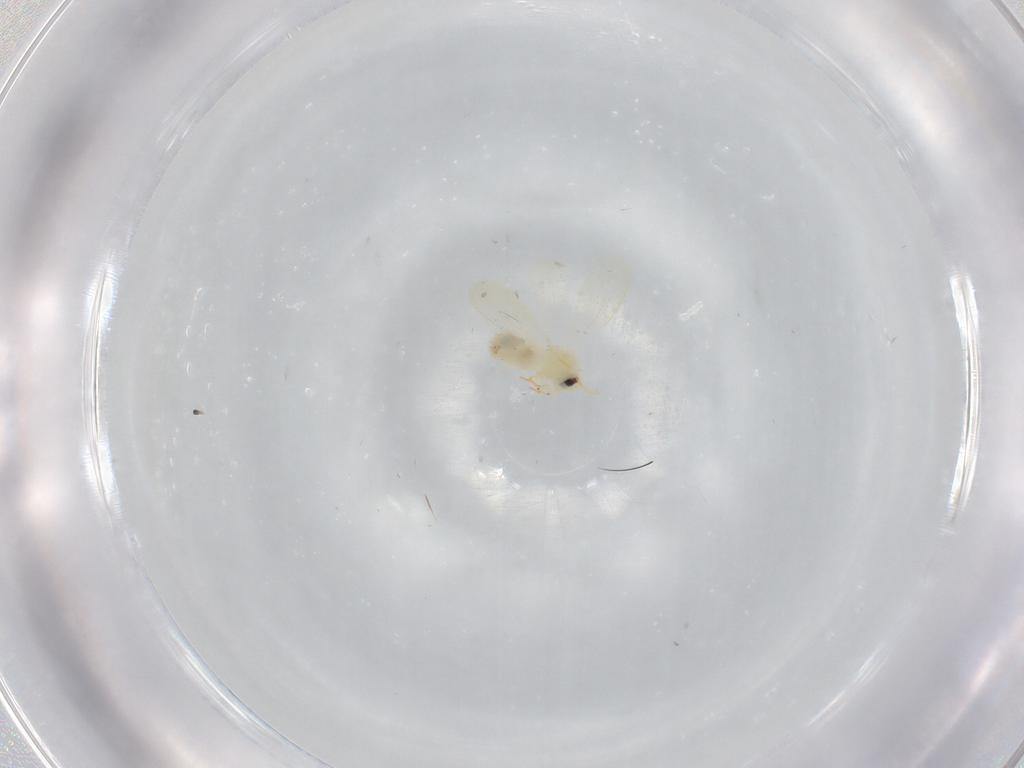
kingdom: Animalia
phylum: Arthropoda
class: Insecta
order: Hemiptera
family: Aleyrodidae
